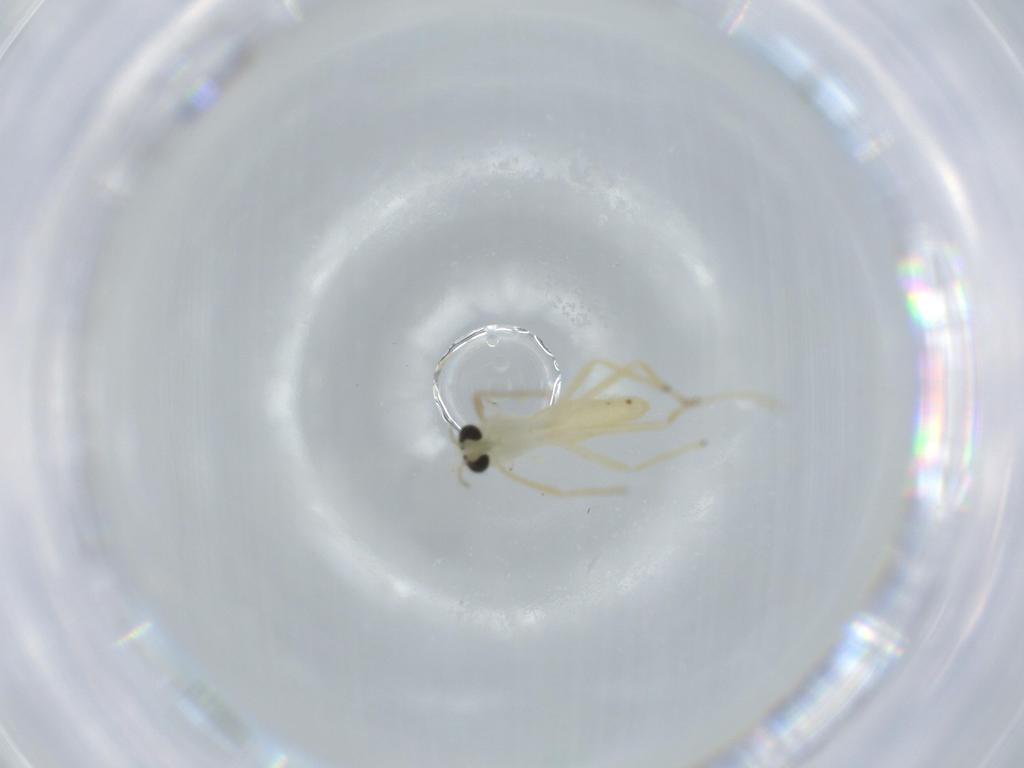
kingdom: Animalia
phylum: Arthropoda
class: Insecta
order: Diptera
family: Chironomidae
